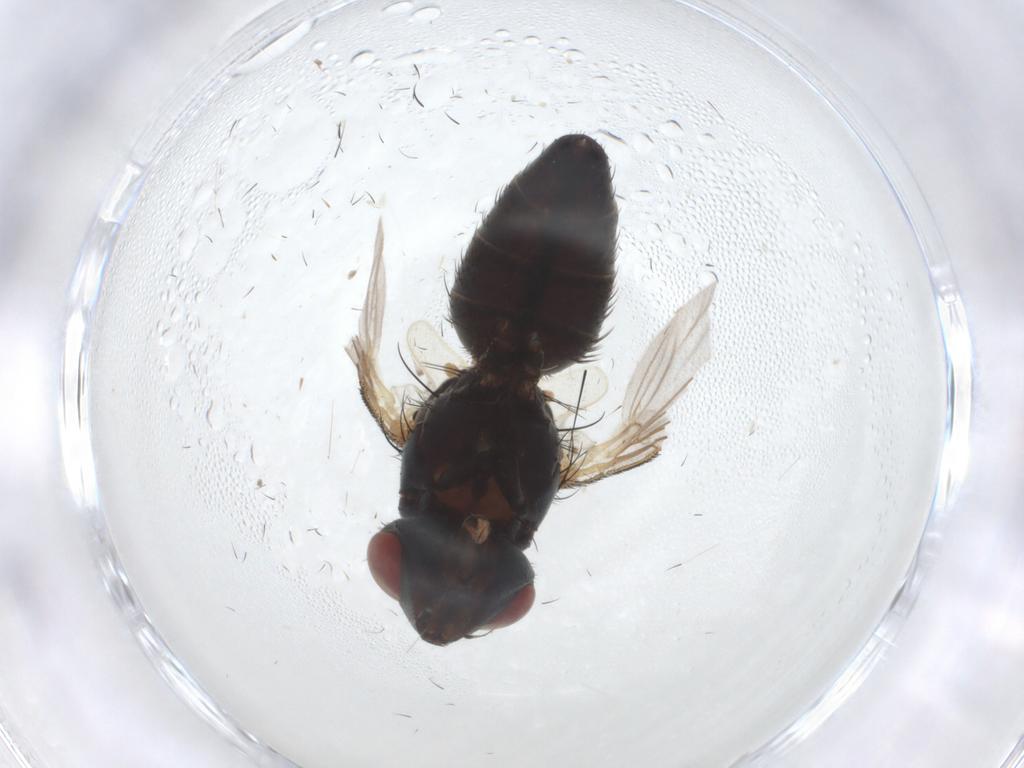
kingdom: Animalia
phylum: Arthropoda
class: Insecta
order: Diptera
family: Sarcophagidae
